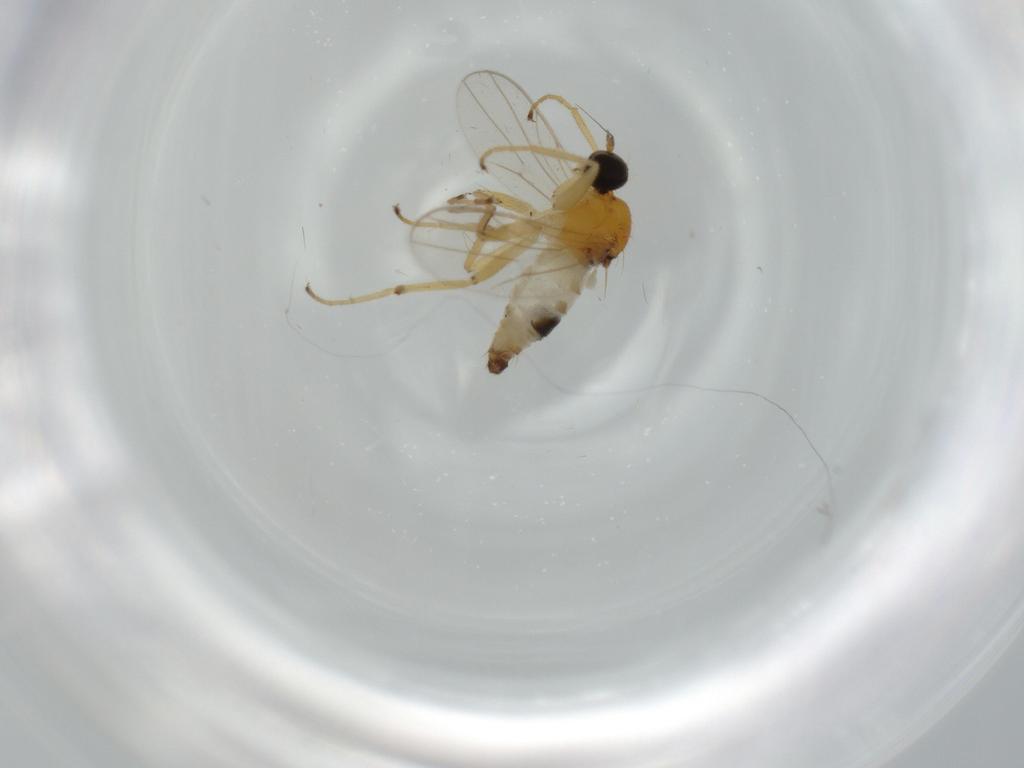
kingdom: Animalia
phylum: Arthropoda
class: Insecta
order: Diptera
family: Hybotidae
